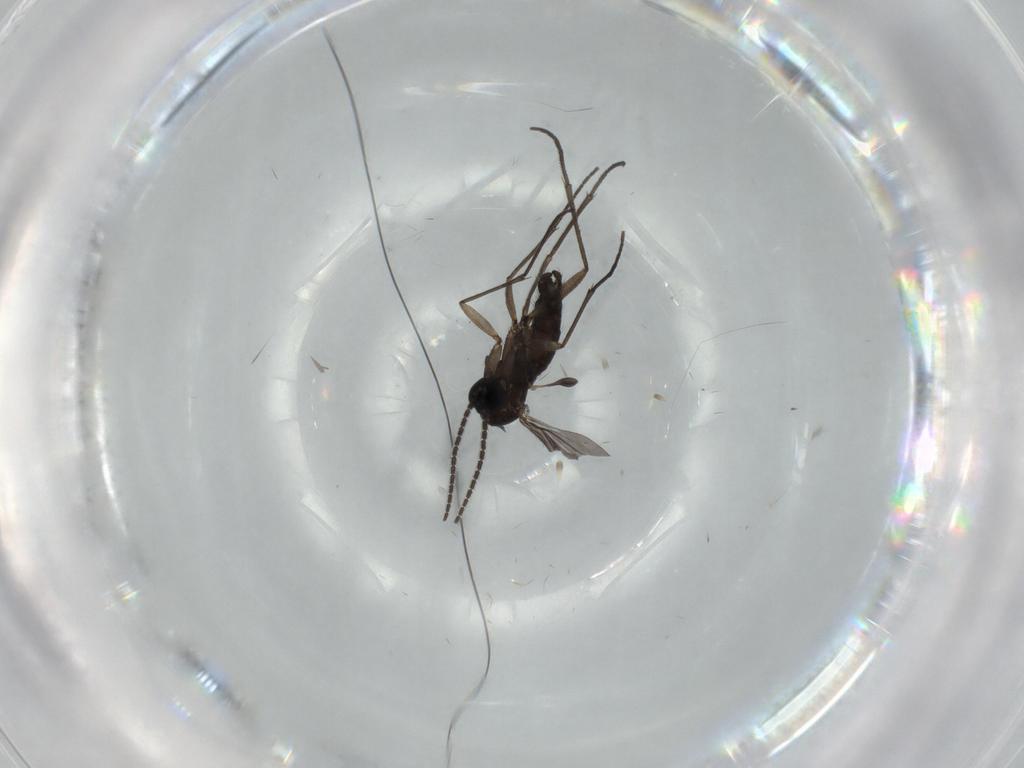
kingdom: Animalia
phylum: Arthropoda
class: Insecta
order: Diptera
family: Sciaridae
